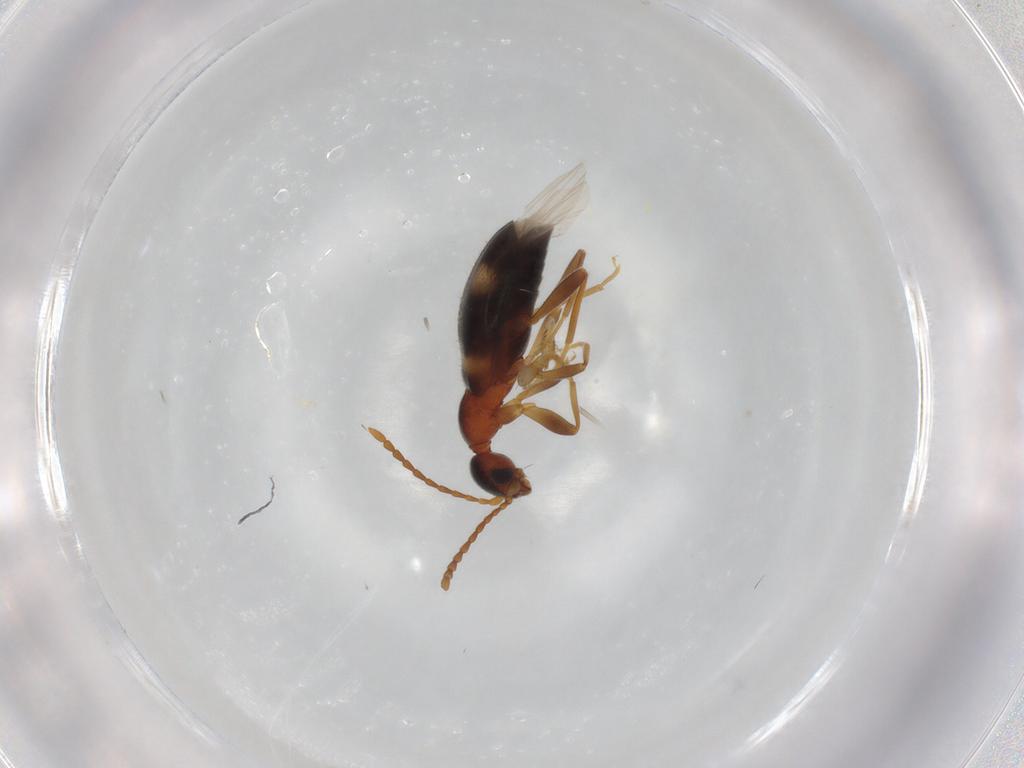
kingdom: Animalia
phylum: Arthropoda
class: Insecta
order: Coleoptera
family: Anthicidae
